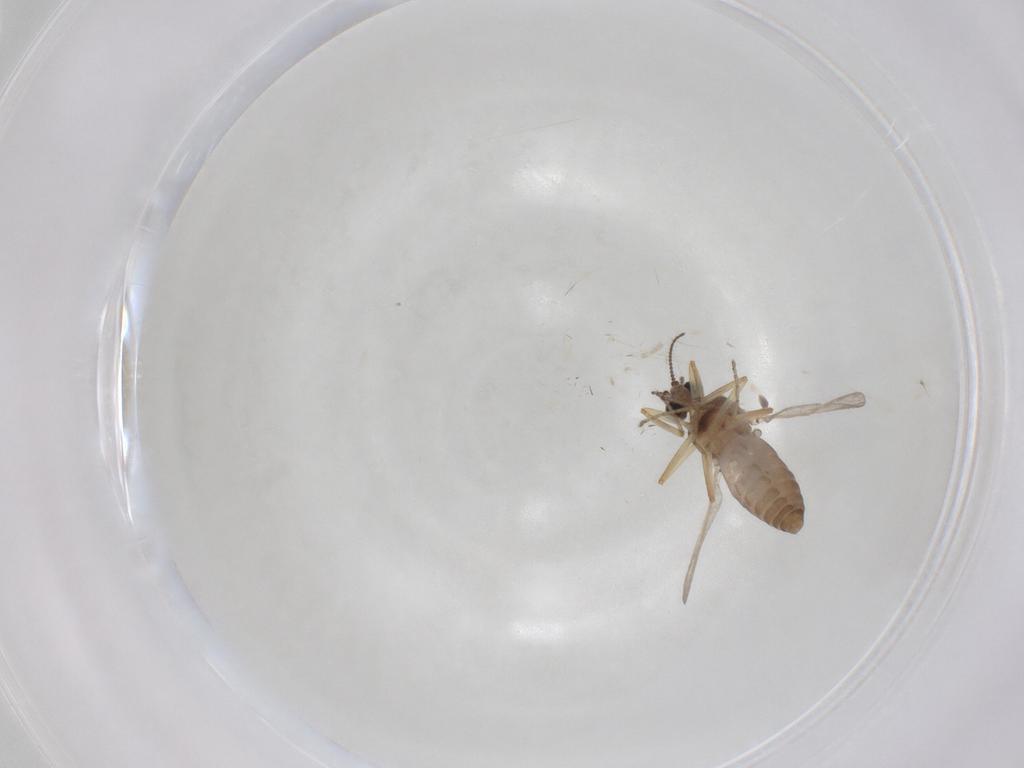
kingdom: Animalia
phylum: Arthropoda
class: Insecta
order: Diptera
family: Ceratopogonidae
